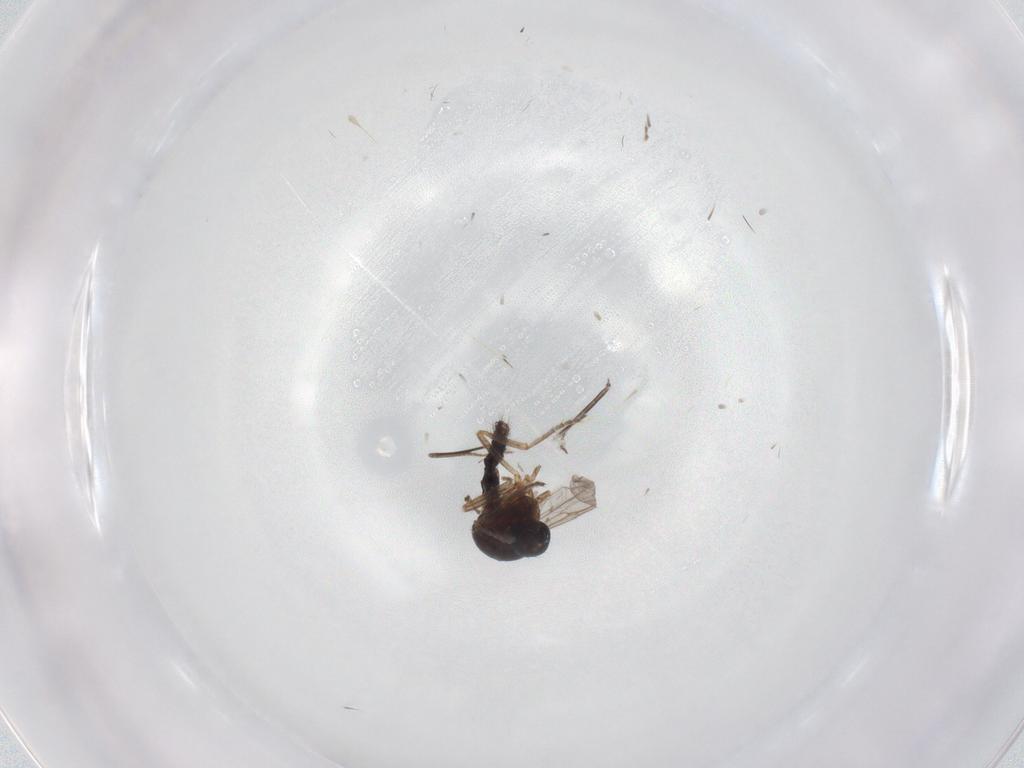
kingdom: Animalia
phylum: Arthropoda
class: Insecta
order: Diptera
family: Ceratopogonidae
